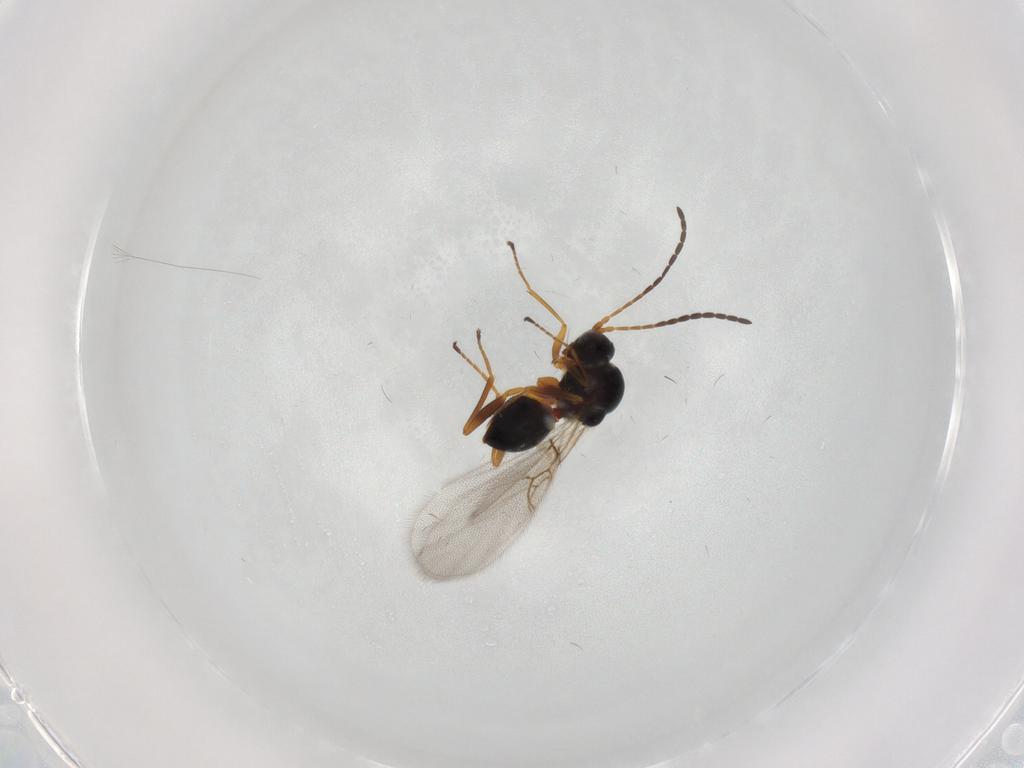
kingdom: Animalia
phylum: Arthropoda
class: Insecta
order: Hymenoptera
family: Figitidae
